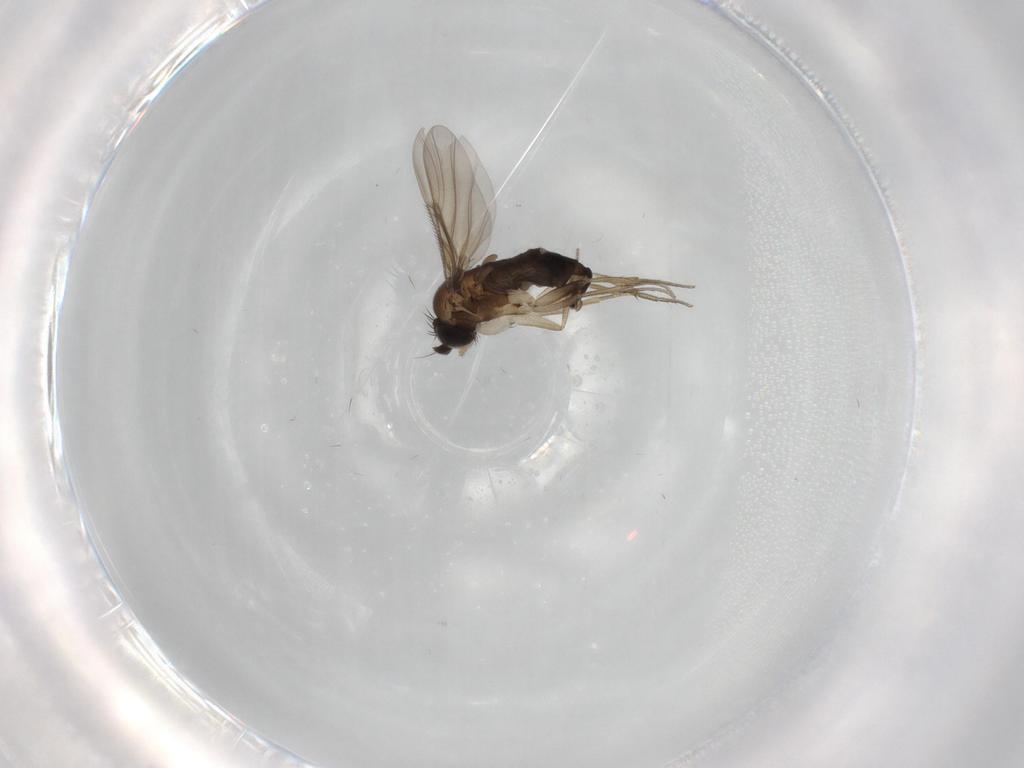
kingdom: Animalia
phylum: Arthropoda
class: Insecta
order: Diptera
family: Phoridae
